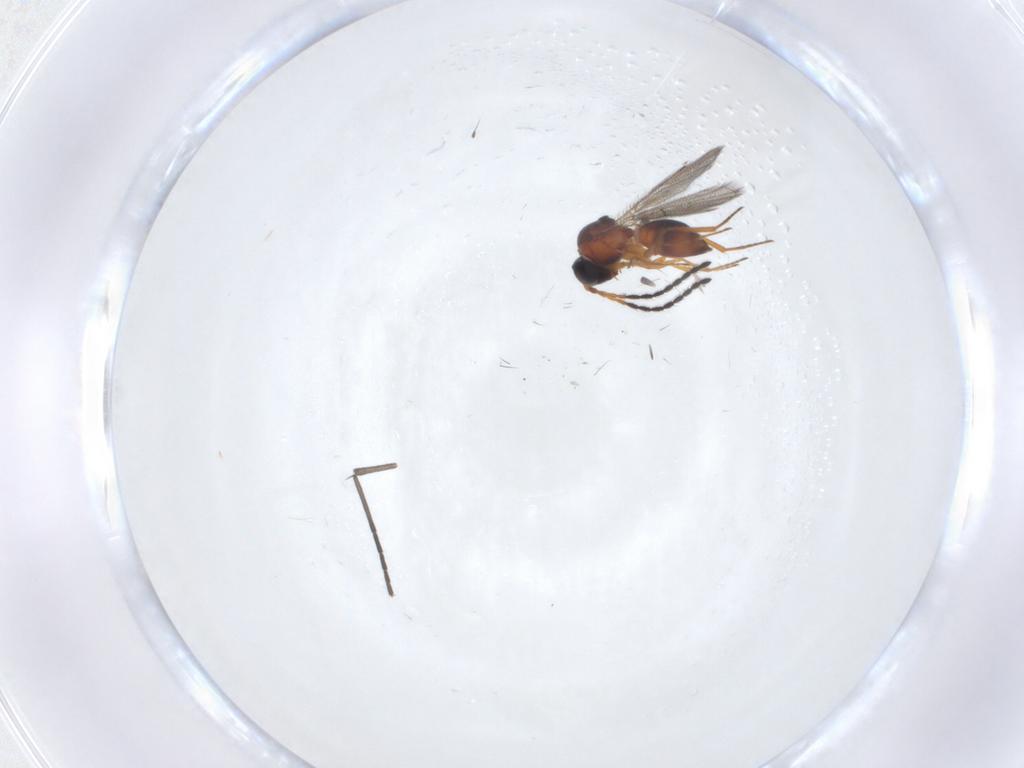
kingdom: Animalia
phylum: Arthropoda
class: Insecta
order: Hymenoptera
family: Figitidae
